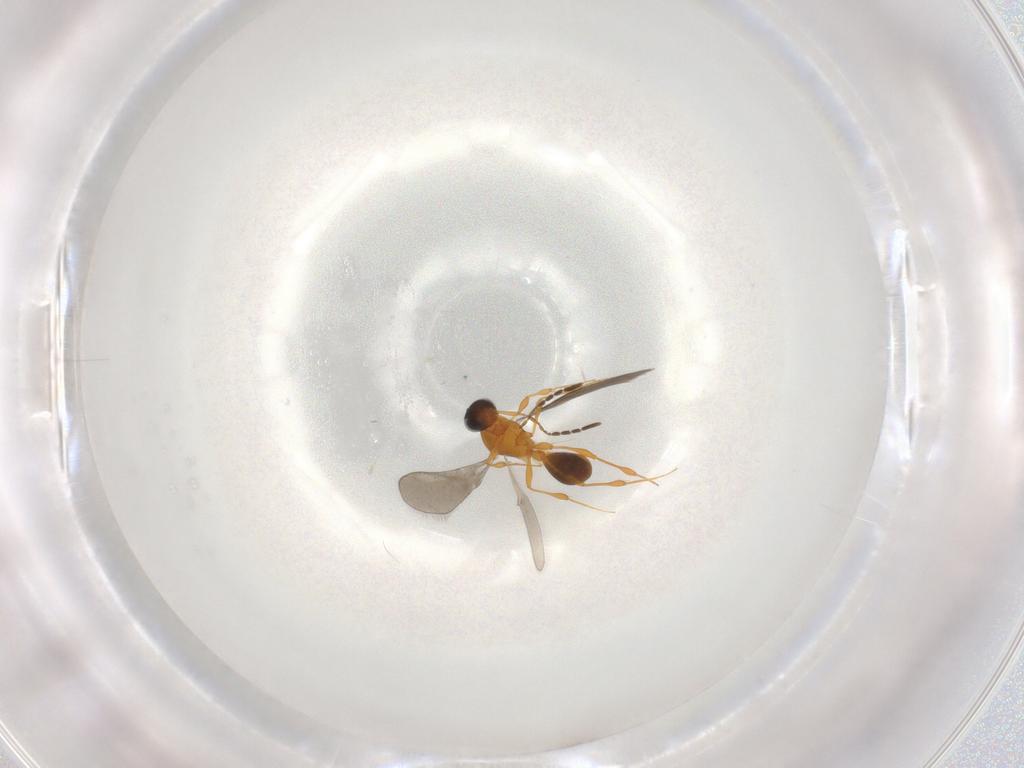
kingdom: Animalia
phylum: Arthropoda
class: Insecta
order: Hymenoptera
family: Platygastridae
